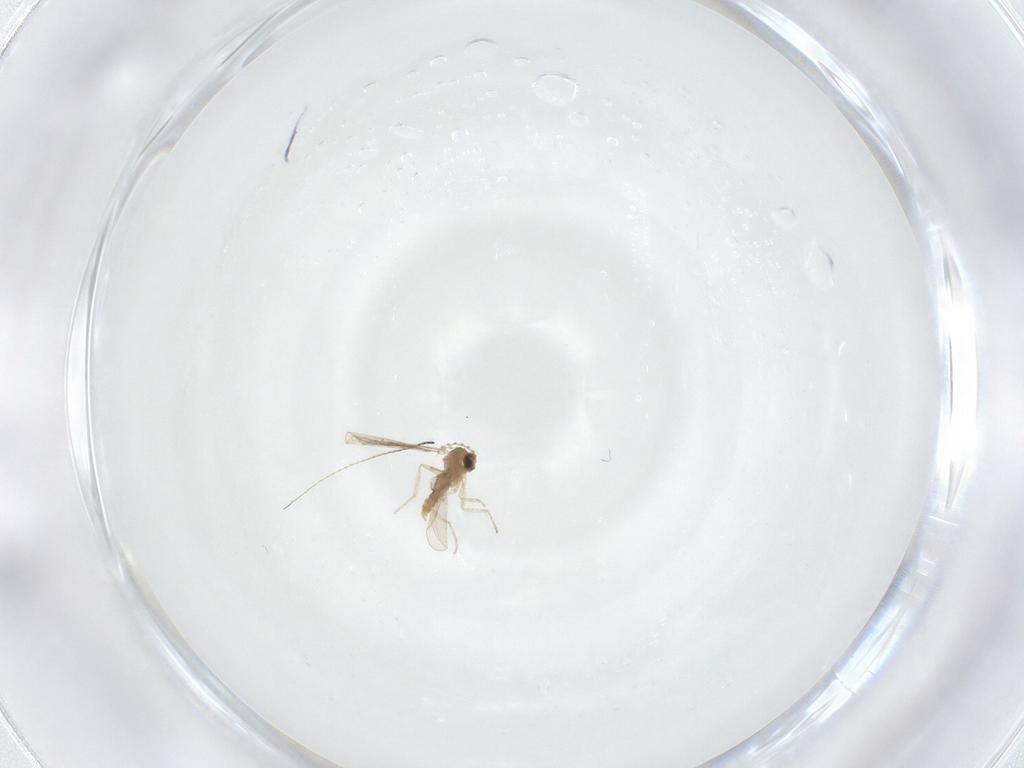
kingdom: Animalia
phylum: Arthropoda
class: Insecta
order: Diptera
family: Cecidomyiidae
